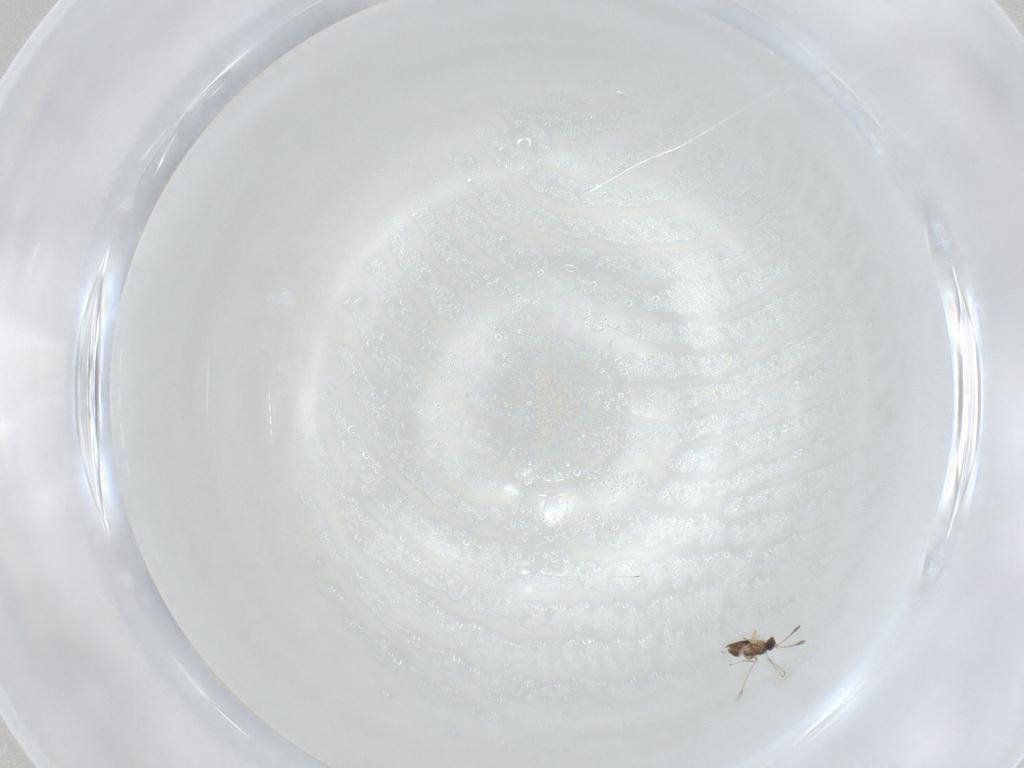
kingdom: Animalia
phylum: Arthropoda
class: Insecta
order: Hymenoptera
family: Mymaridae
